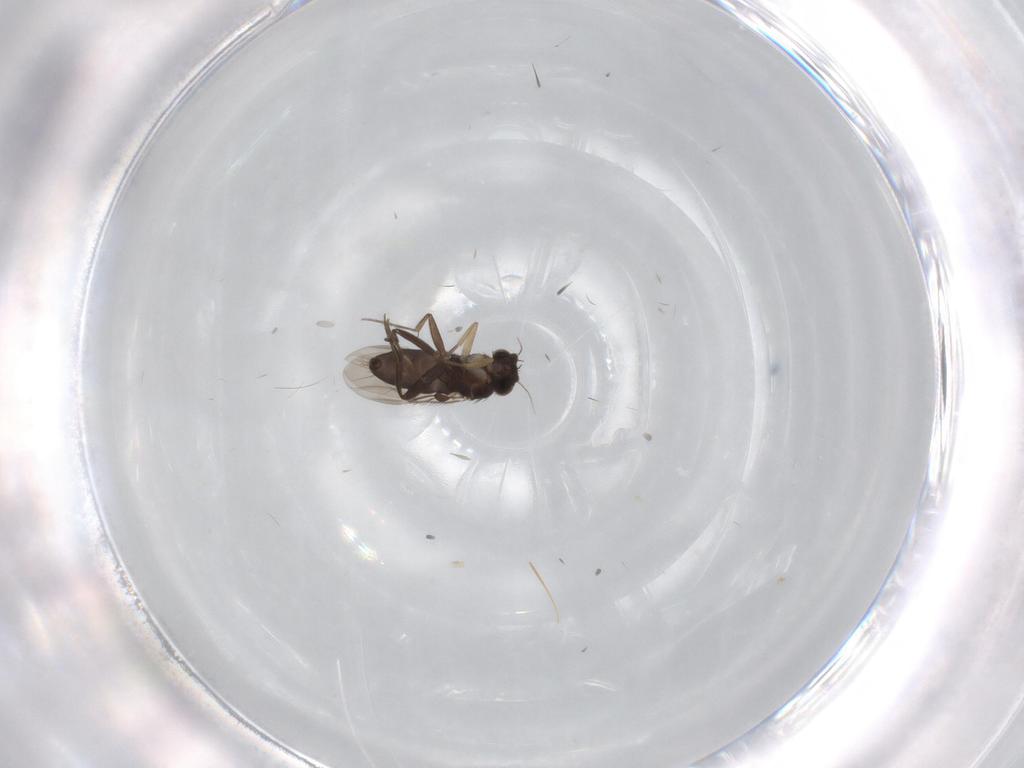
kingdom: Animalia
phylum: Arthropoda
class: Insecta
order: Diptera
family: Phoridae
